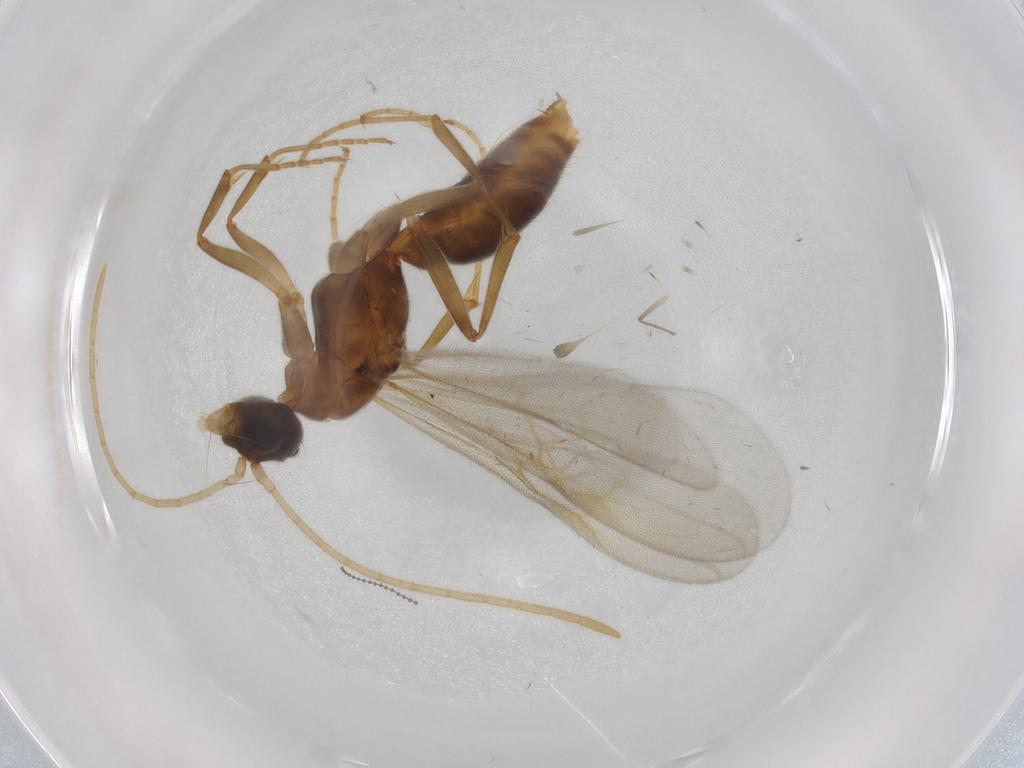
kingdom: Animalia
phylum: Arthropoda
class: Insecta
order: Hymenoptera
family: Formicidae
